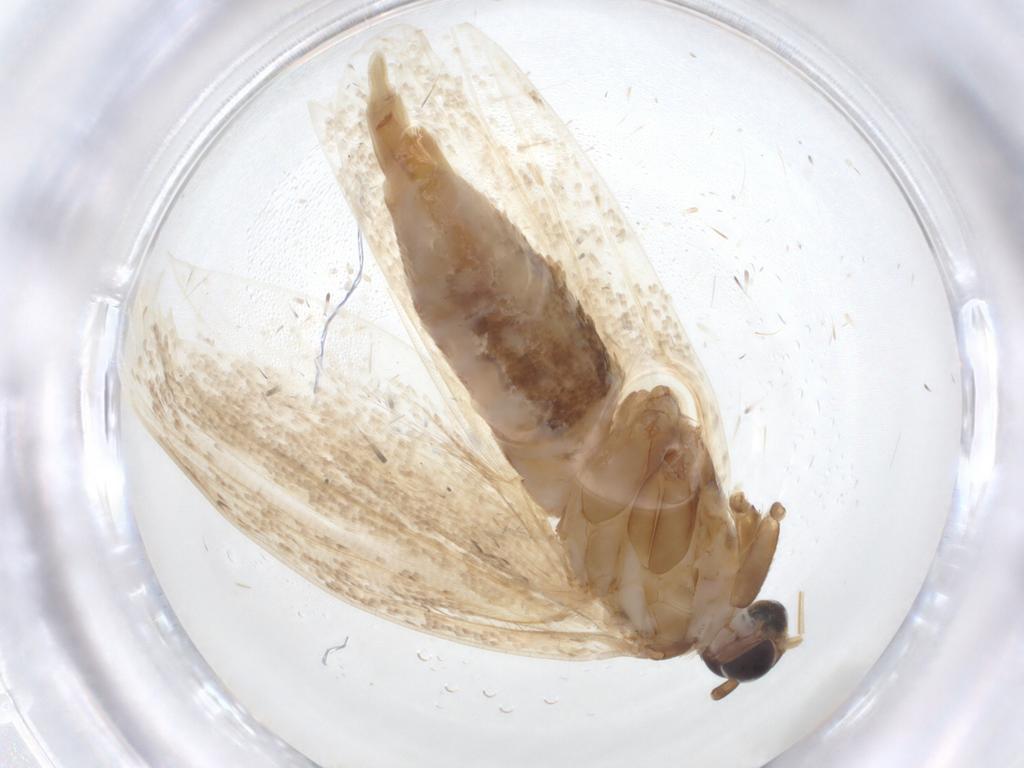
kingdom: Animalia
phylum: Arthropoda
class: Insecta
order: Lepidoptera
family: Oecophoridae
